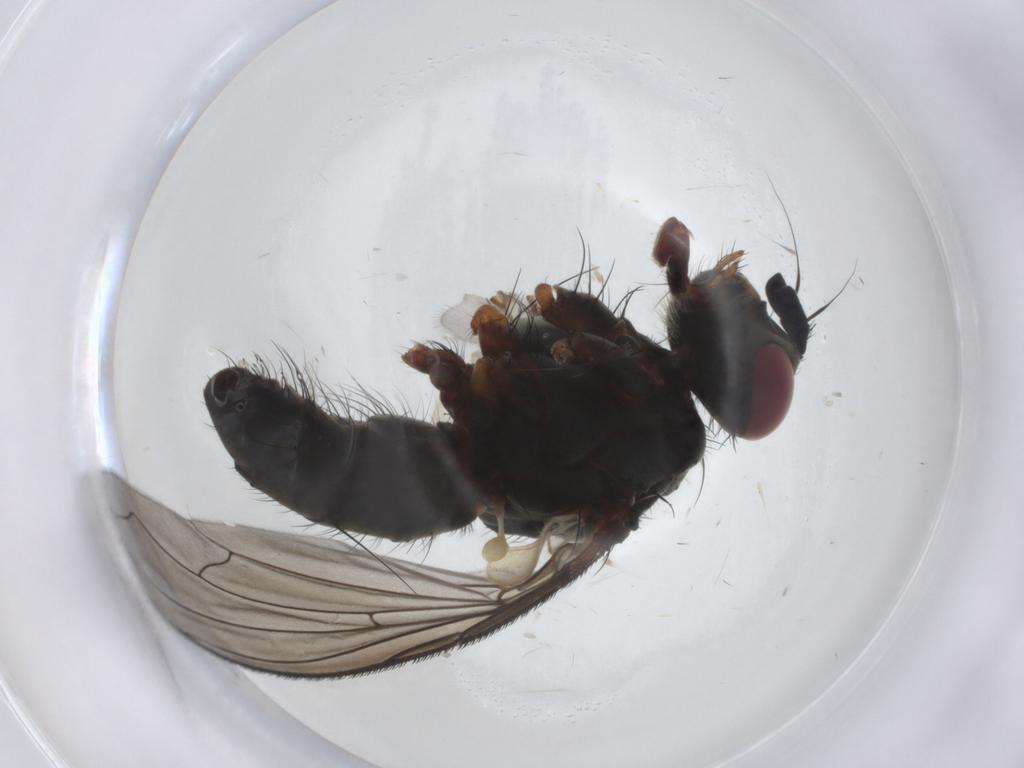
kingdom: Animalia
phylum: Arthropoda
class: Insecta
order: Diptera
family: Tachinidae
